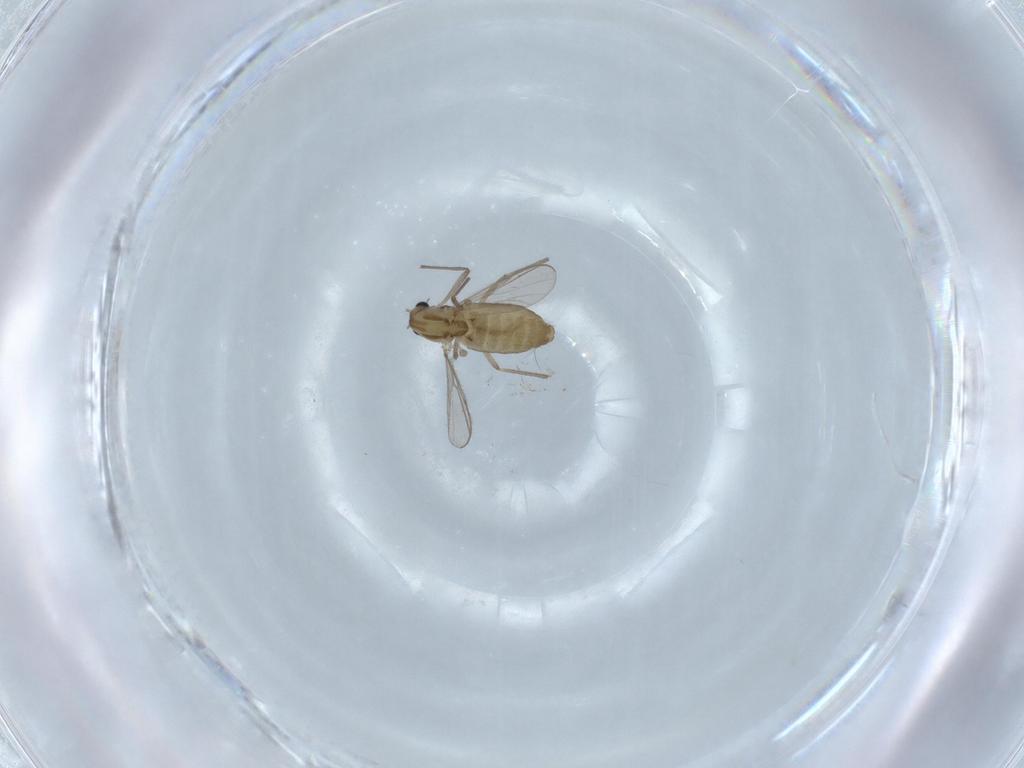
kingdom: Animalia
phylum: Arthropoda
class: Insecta
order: Diptera
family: Chironomidae
